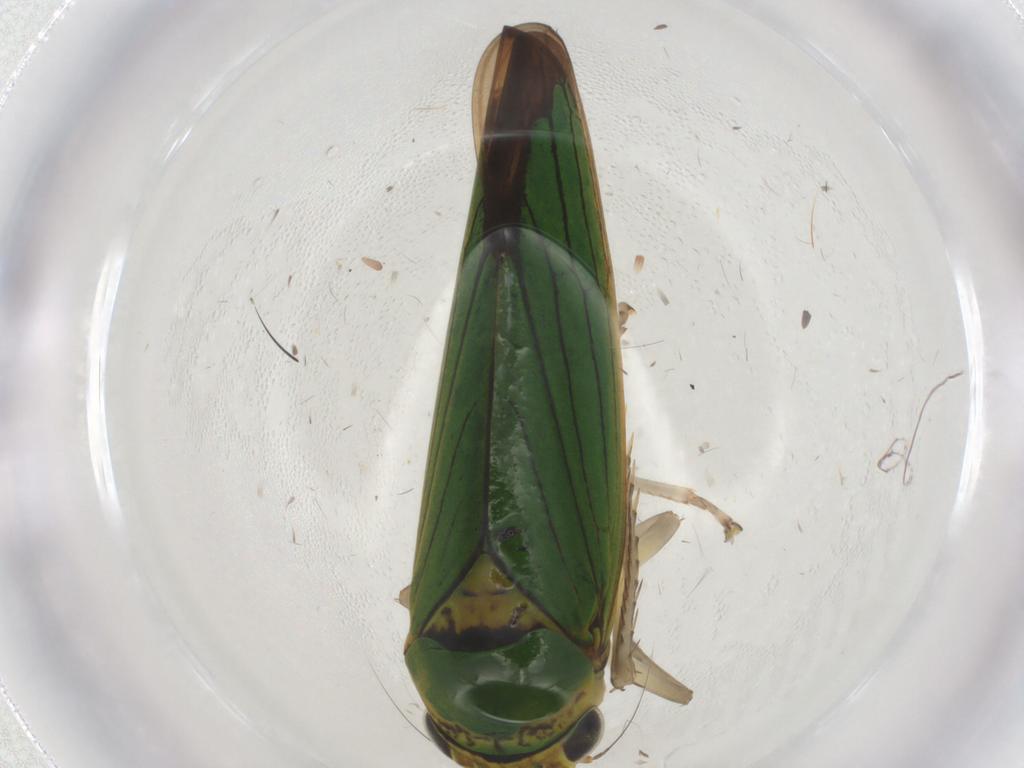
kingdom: Animalia
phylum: Arthropoda
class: Insecta
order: Hemiptera
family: Cicadellidae
